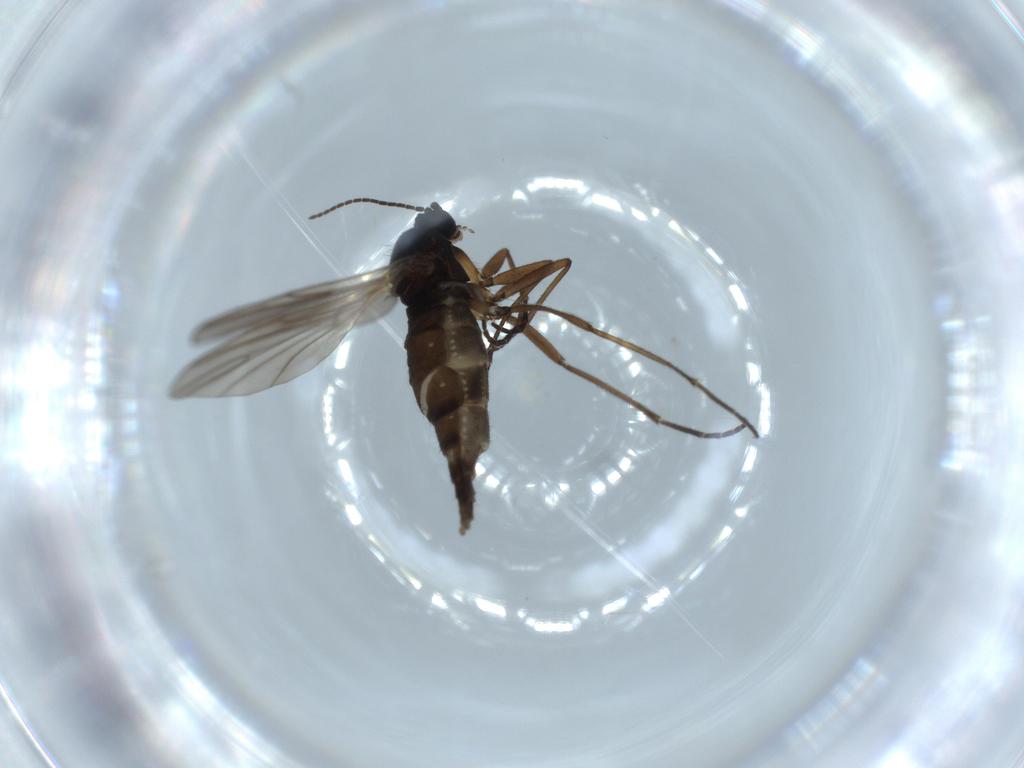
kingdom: Animalia
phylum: Arthropoda
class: Insecta
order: Diptera
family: Sciaridae
